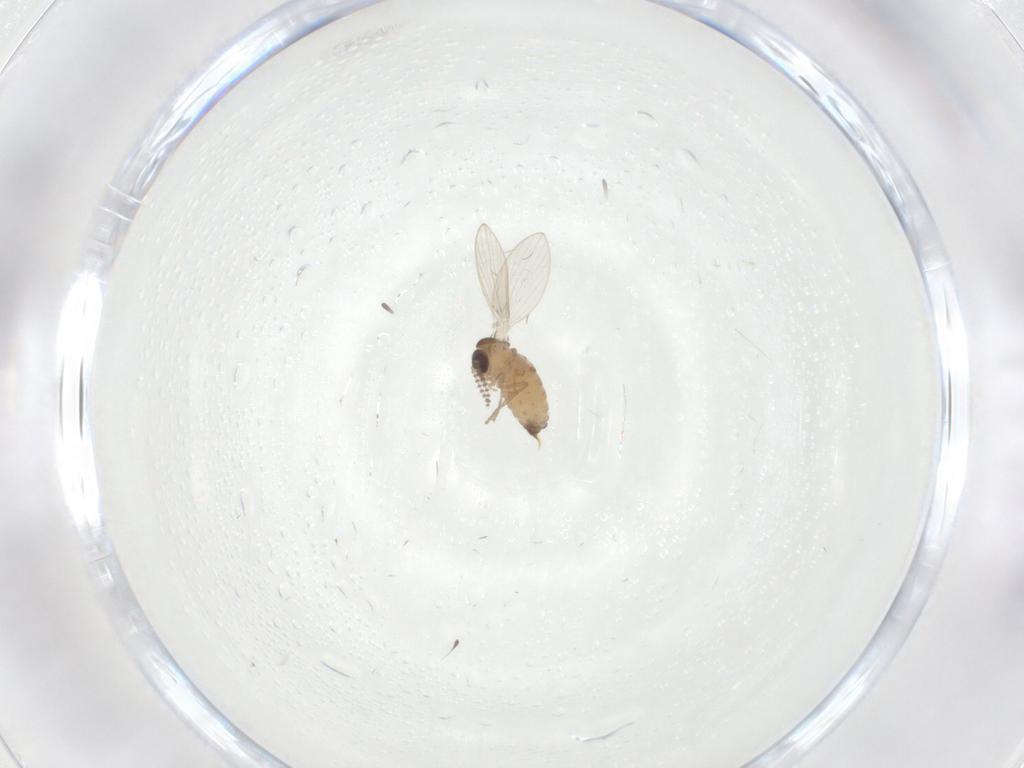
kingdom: Animalia
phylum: Arthropoda
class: Insecta
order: Diptera
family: Psychodidae
